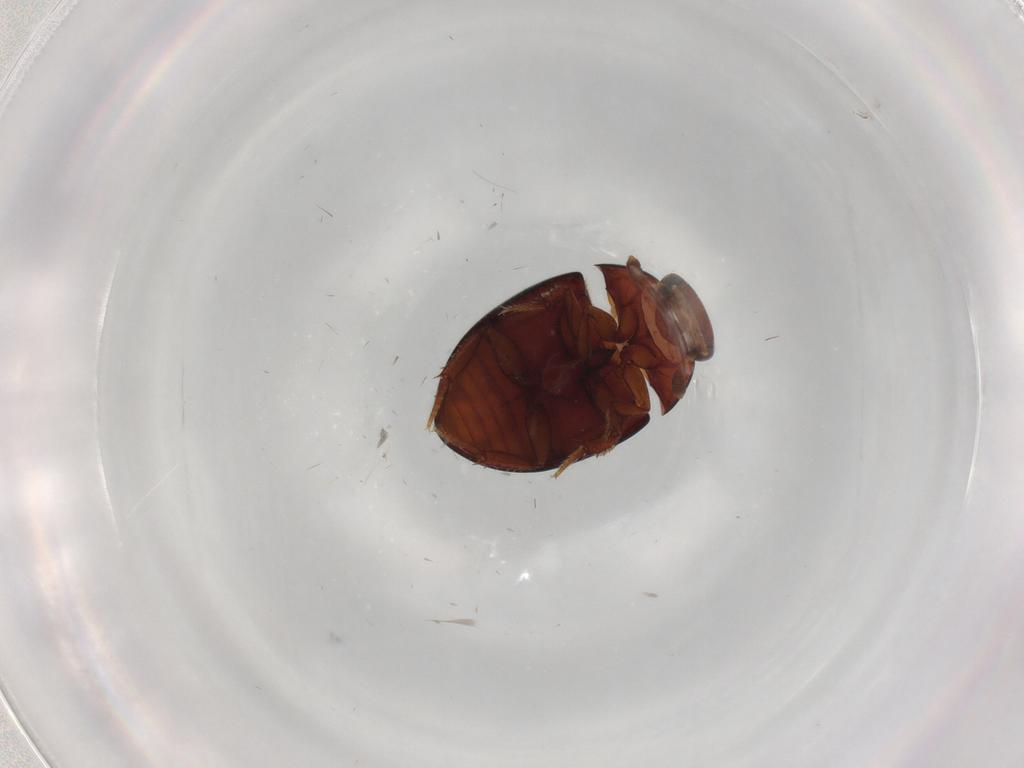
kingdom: Animalia
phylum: Arthropoda
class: Insecta
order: Coleoptera
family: Hydrophilidae
